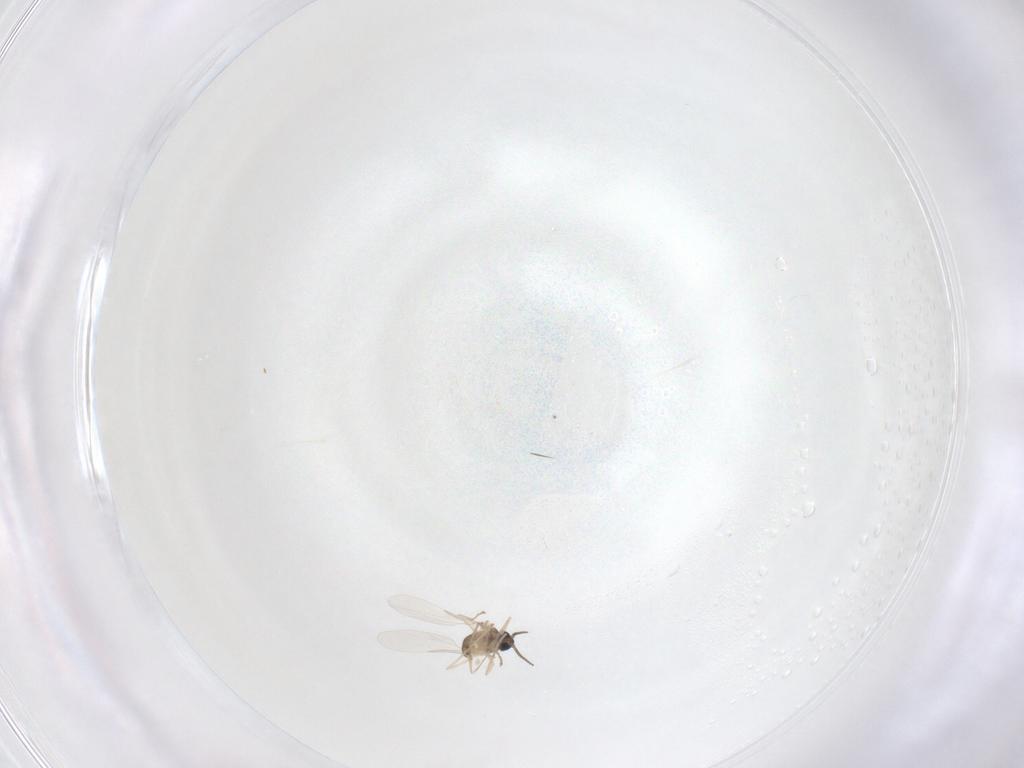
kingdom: Animalia
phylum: Arthropoda
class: Insecta
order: Diptera
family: Cecidomyiidae
